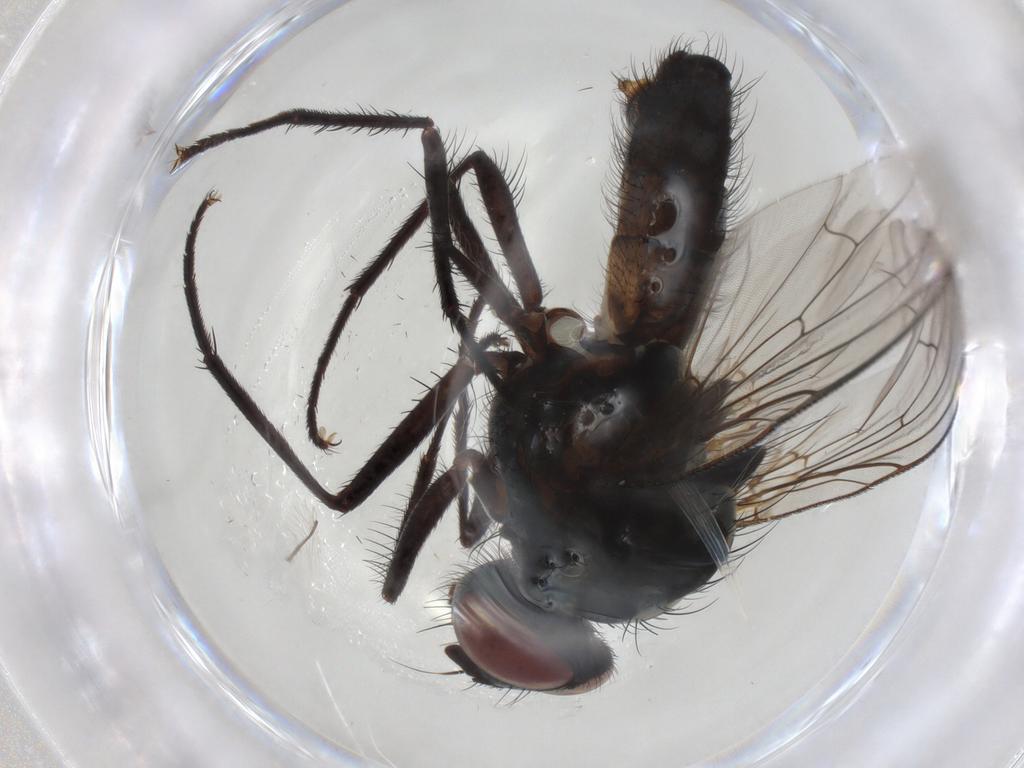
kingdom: Animalia
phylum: Arthropoda
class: Insecta
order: Diptera
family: Anthomyiidae
